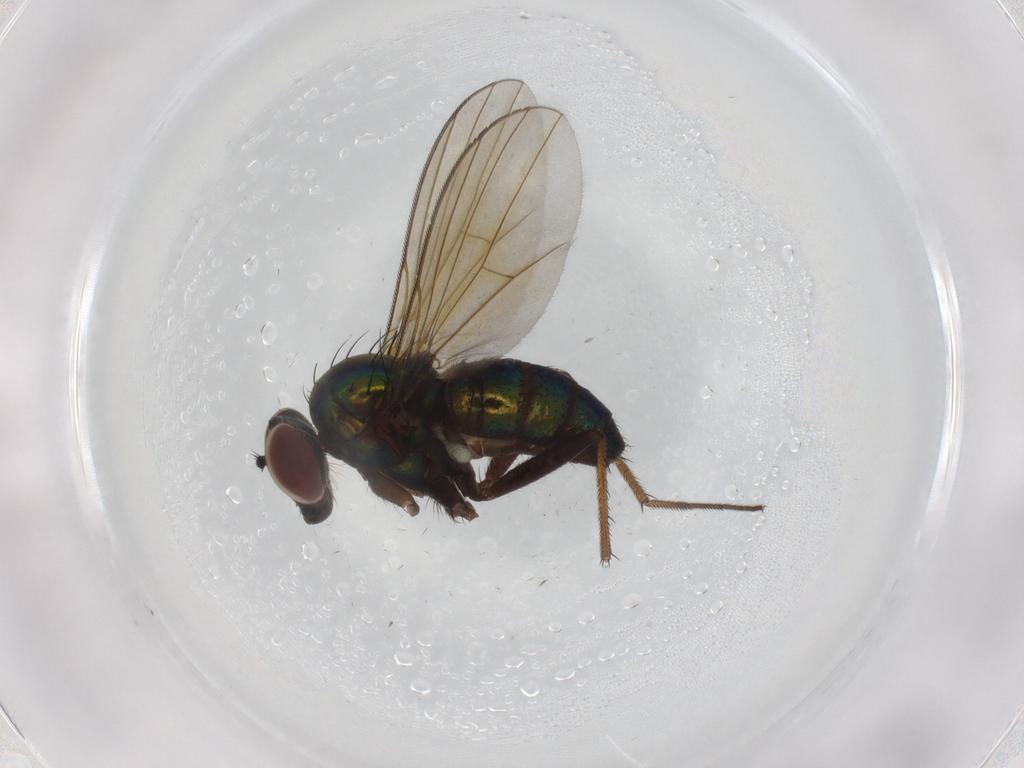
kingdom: Animalia
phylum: Arthropoda
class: Insecta
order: Diptera
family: Dolichopodidae
